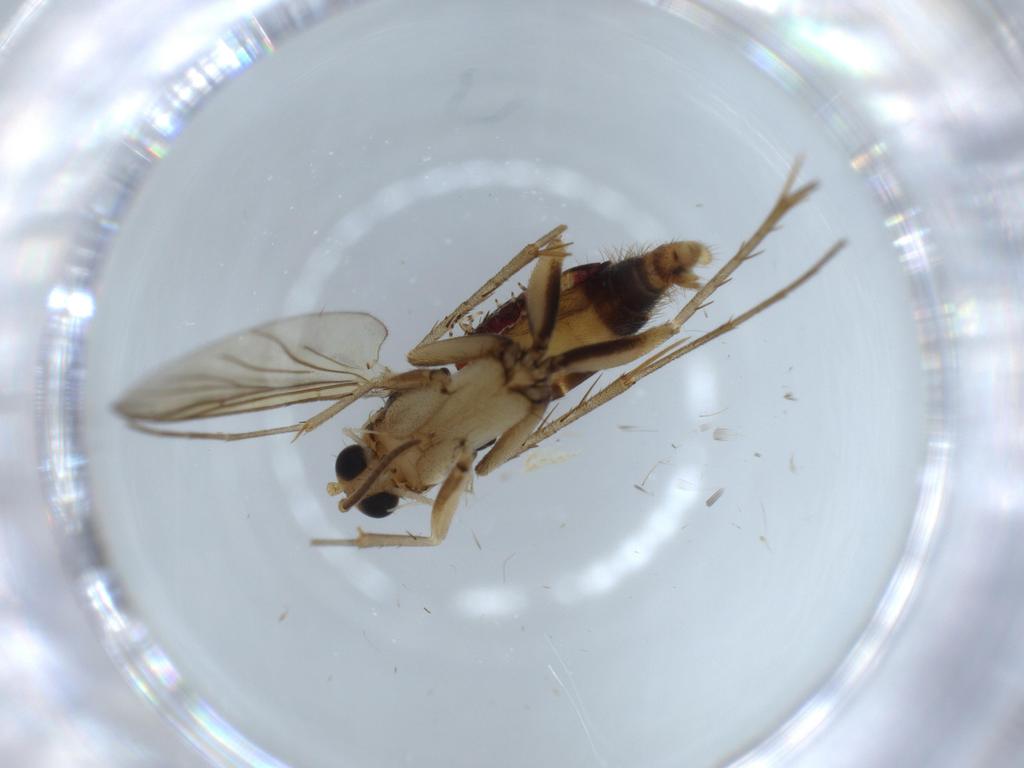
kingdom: Animalia
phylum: Arthropoda
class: Insecta
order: Diptera
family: Mycetophilidae
